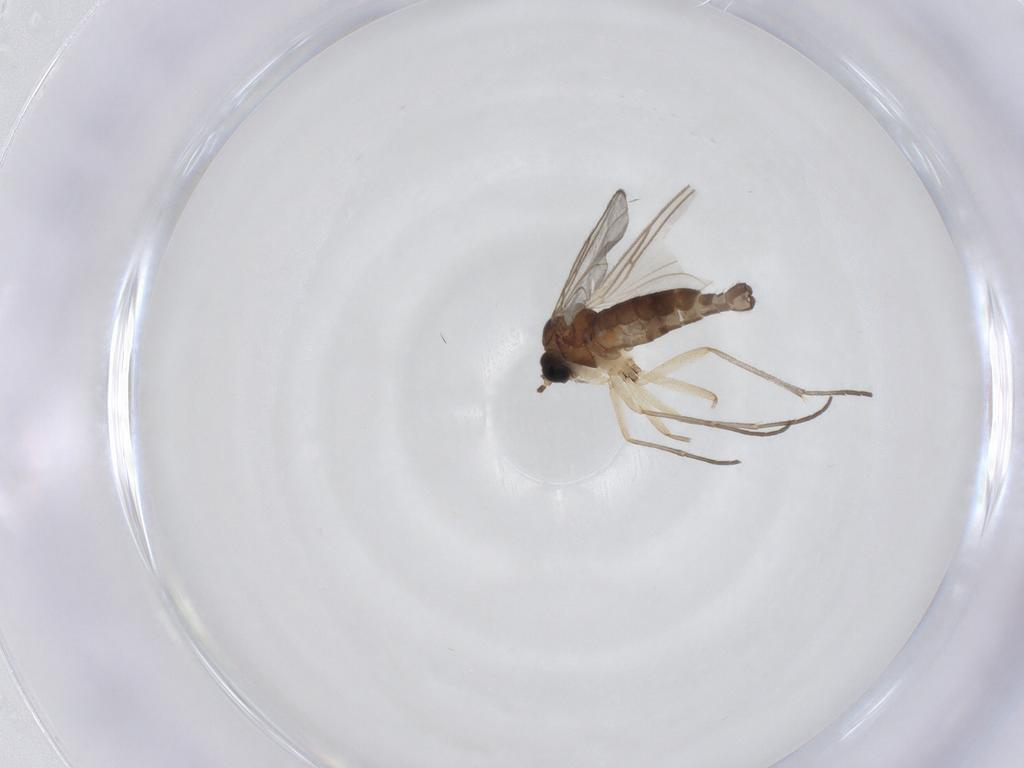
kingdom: Animalia
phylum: Arthropoda
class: Insecta
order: Diptera
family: Sciaridae
